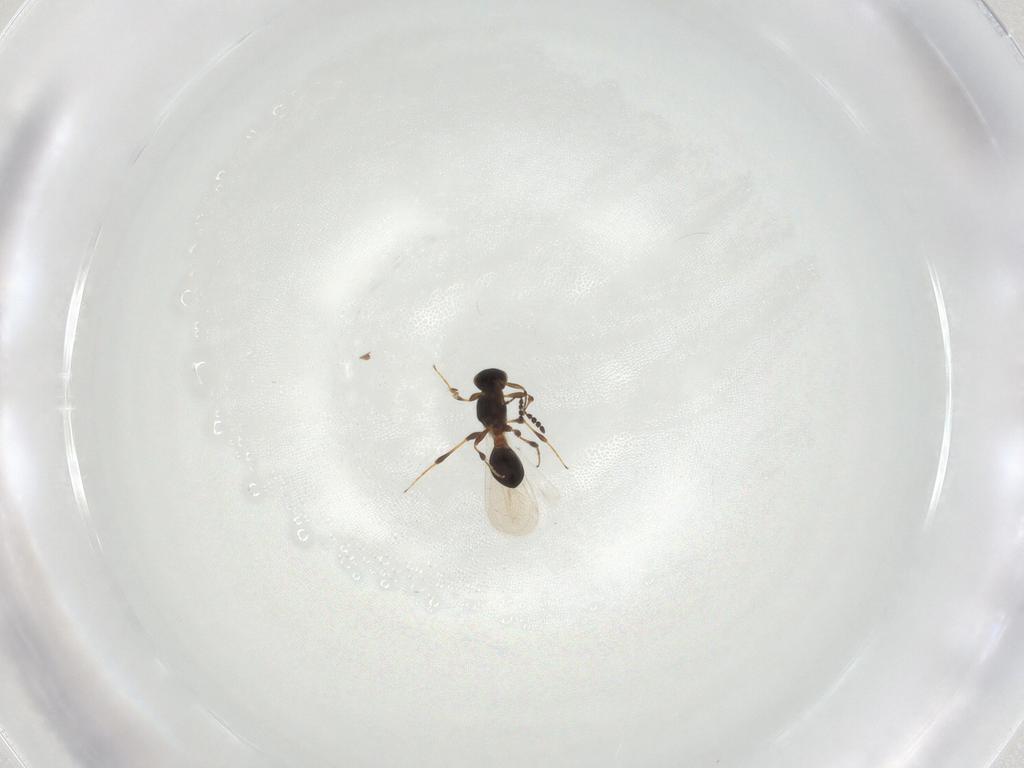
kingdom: Animalia
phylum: Arthropoda
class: Insecta
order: Hymenoptera
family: Platygastridae
